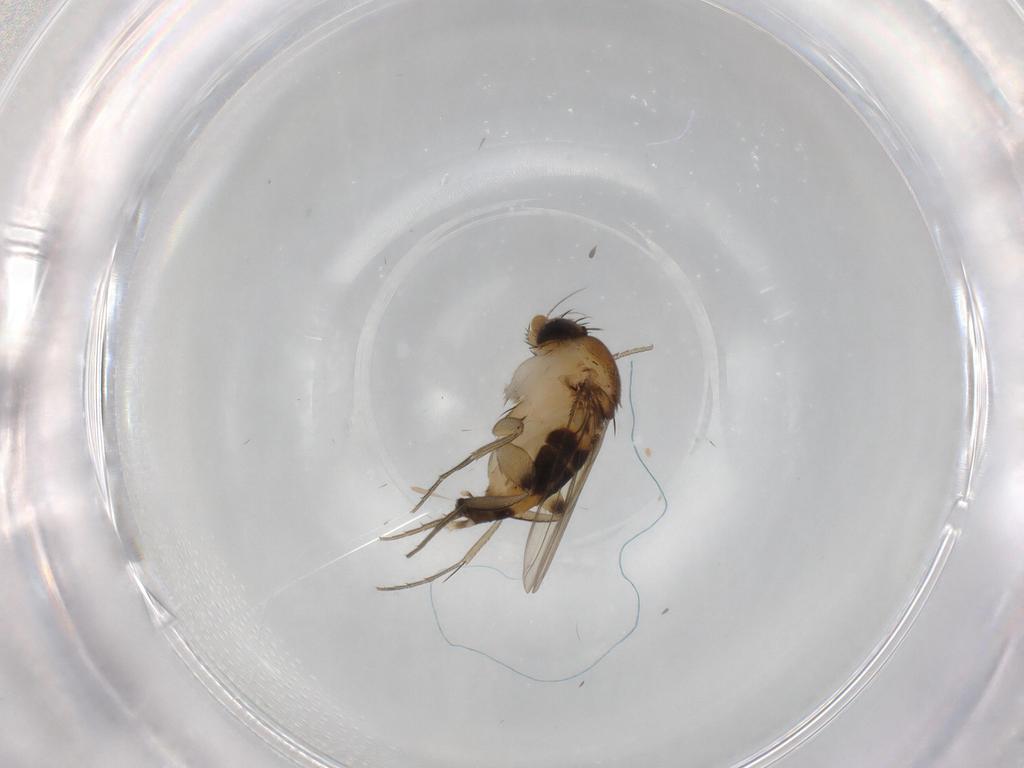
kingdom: Animalia
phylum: Arthropoda
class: Insecta
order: Diptera
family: Phoridae
